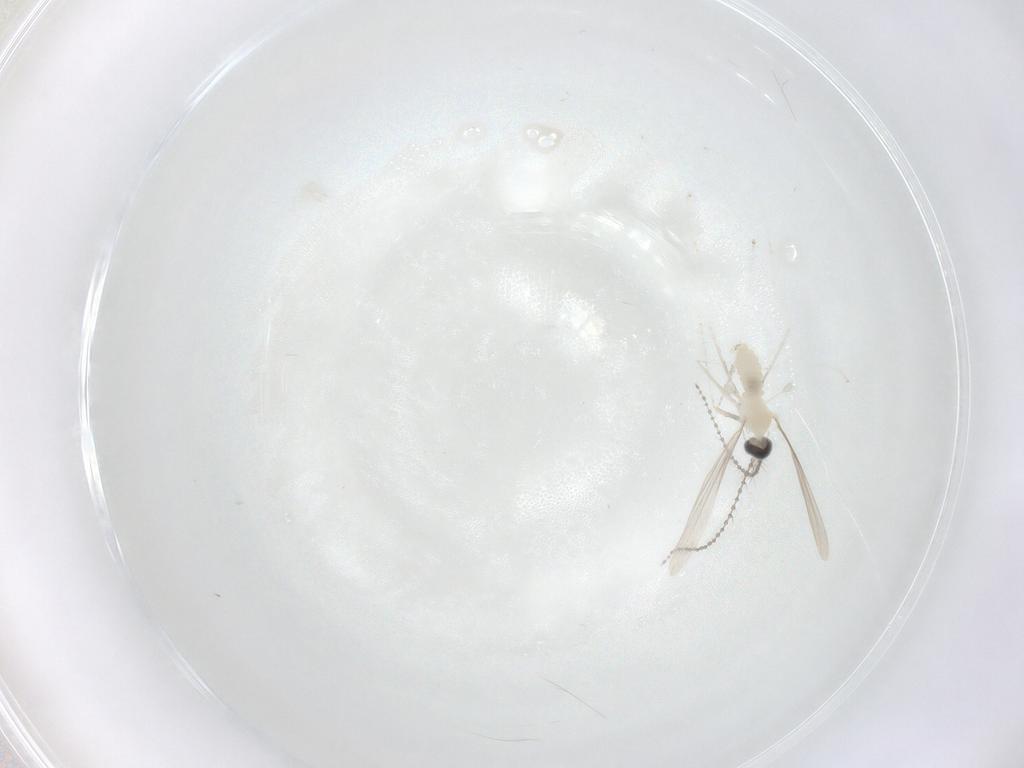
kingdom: Animalia
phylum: Arthropoda
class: Insecta
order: Diptera
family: Cecidomyiidae
